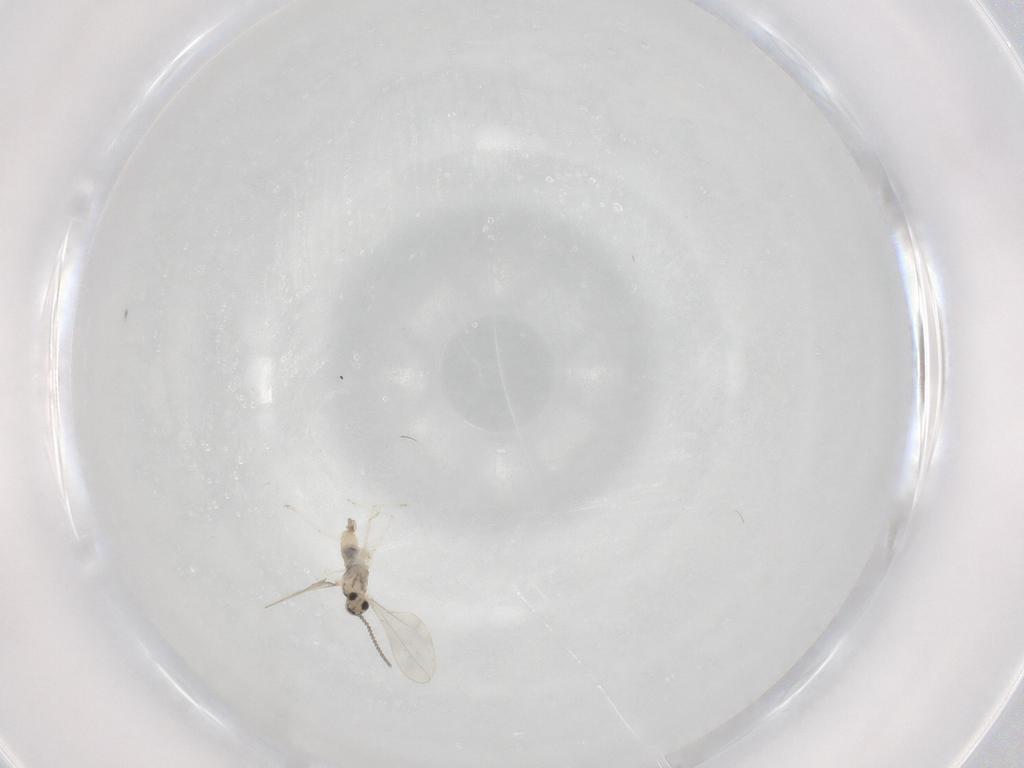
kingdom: Animalia
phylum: Arthropoda
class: Insecta
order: Diptera
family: Cecidomyiidae
